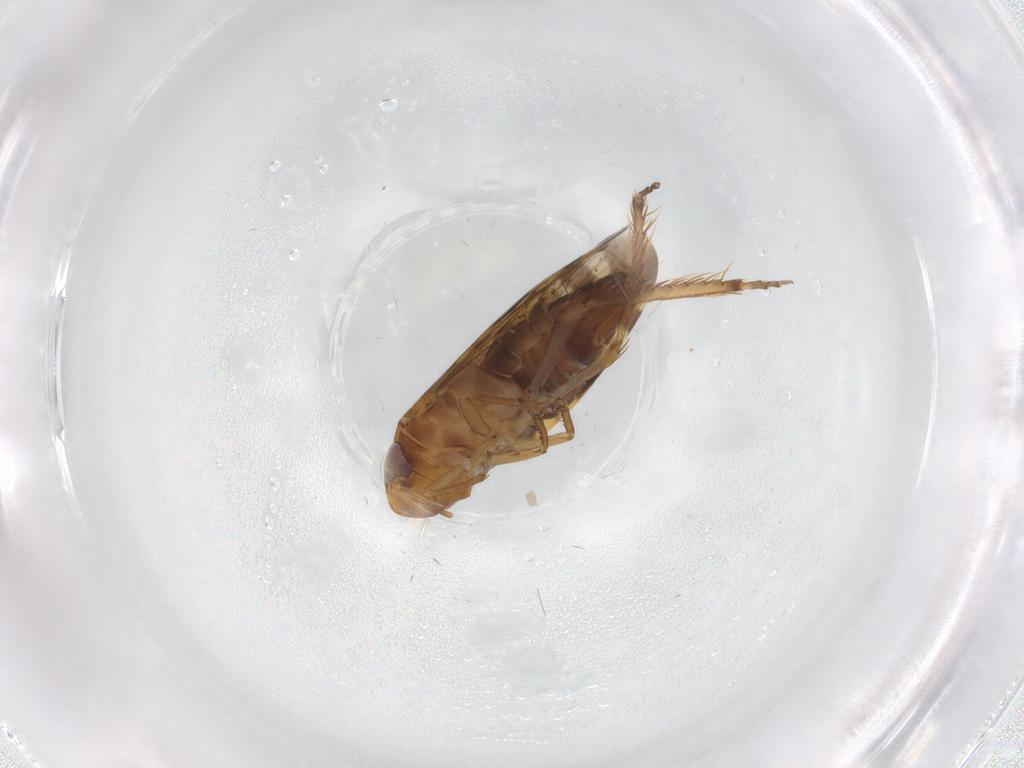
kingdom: Animalia
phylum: Arthropoda
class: Insecta
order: Hemiptera
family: Cicadellidae
